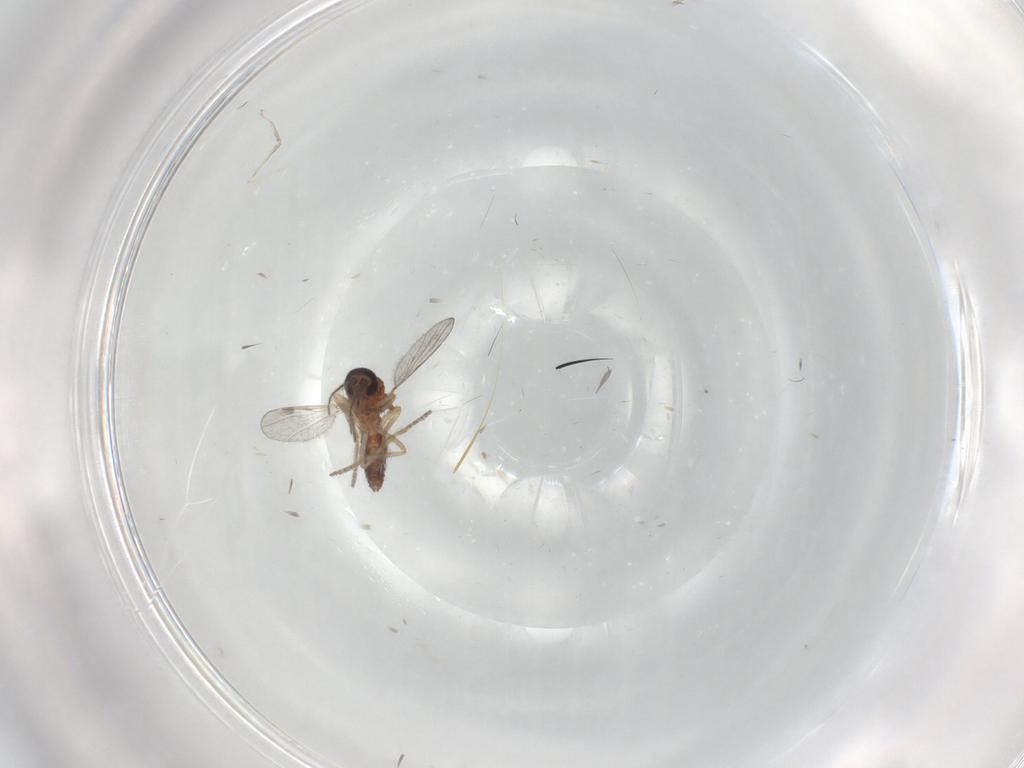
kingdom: Animalia
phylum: Arthropoda
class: Insecta
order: Diptera
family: Ceratopogonidae
